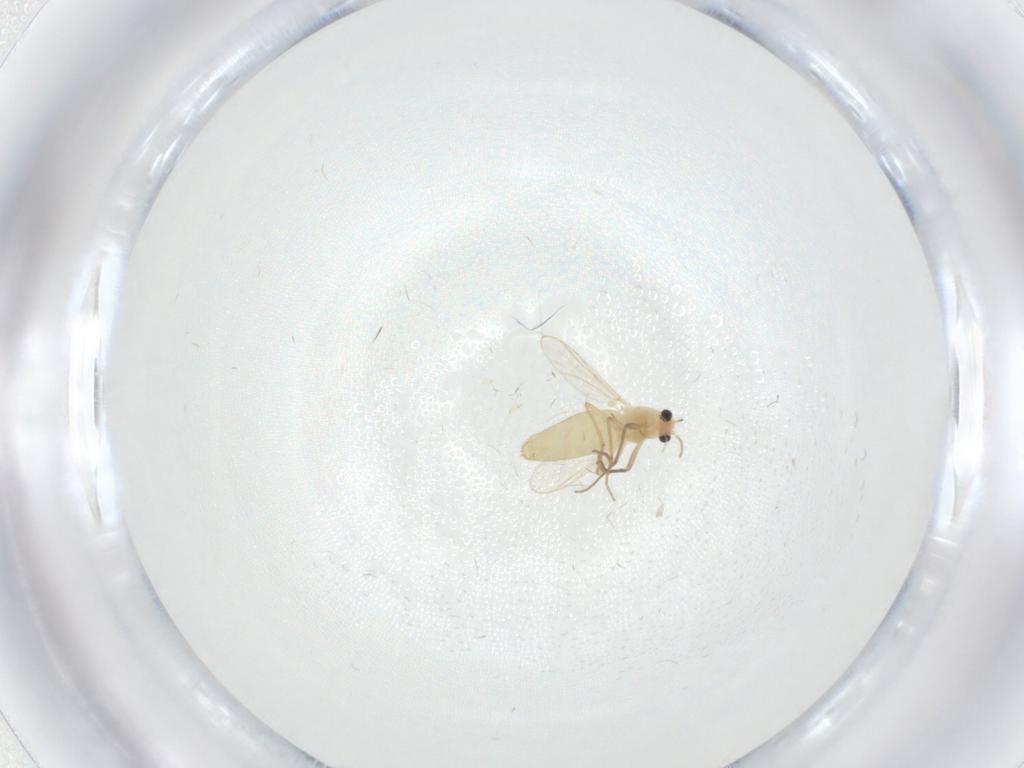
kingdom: Animalia
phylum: Arthropoda
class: Insecta
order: Diptera
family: Chironomidae
